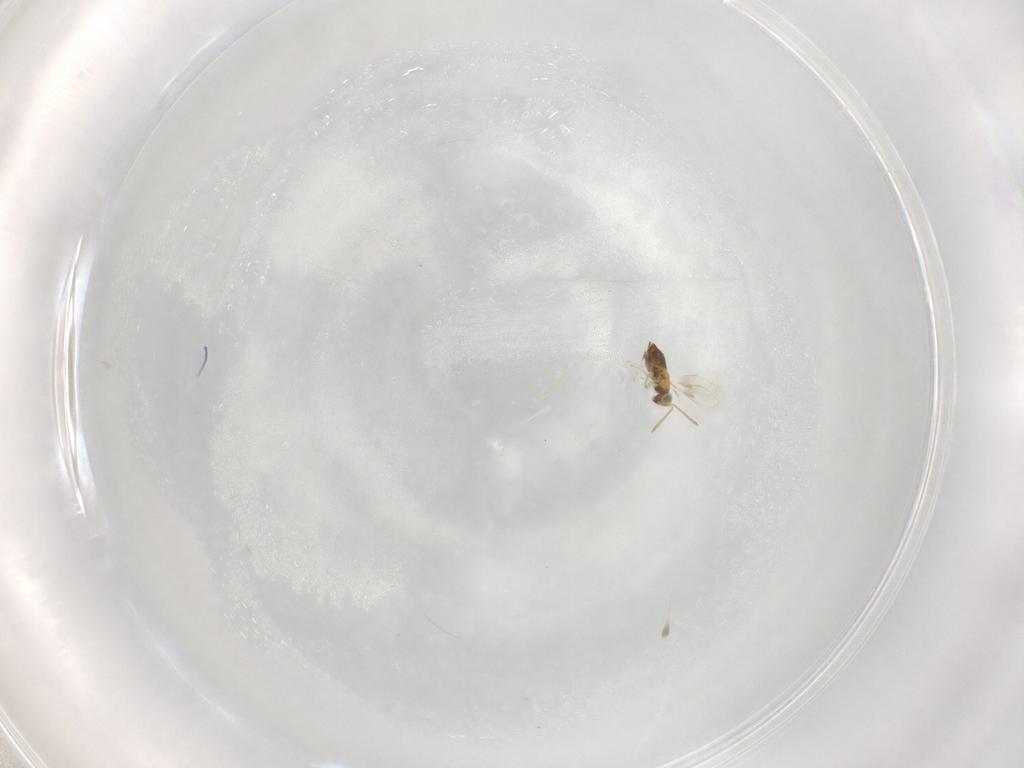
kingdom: Animalia
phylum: Arthropoda
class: Insecta
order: Hymenoptera
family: Aphelinidae
